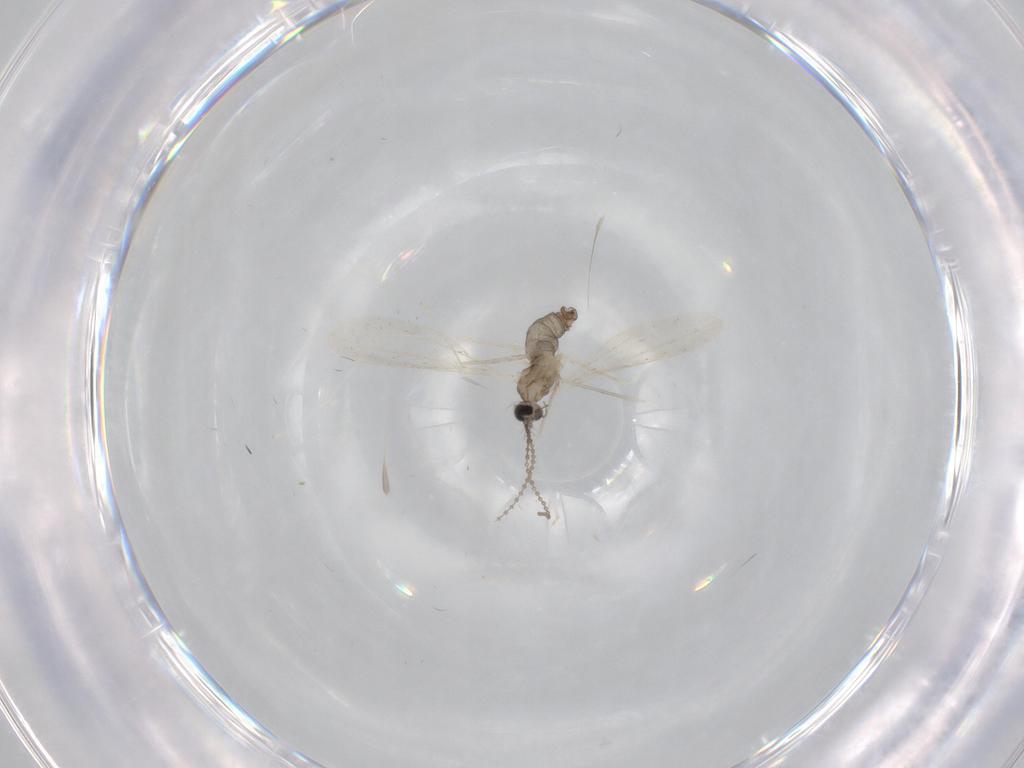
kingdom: Animalia
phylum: Arthropoda
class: Insecta
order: Diptera
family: Cecidomyiidae
